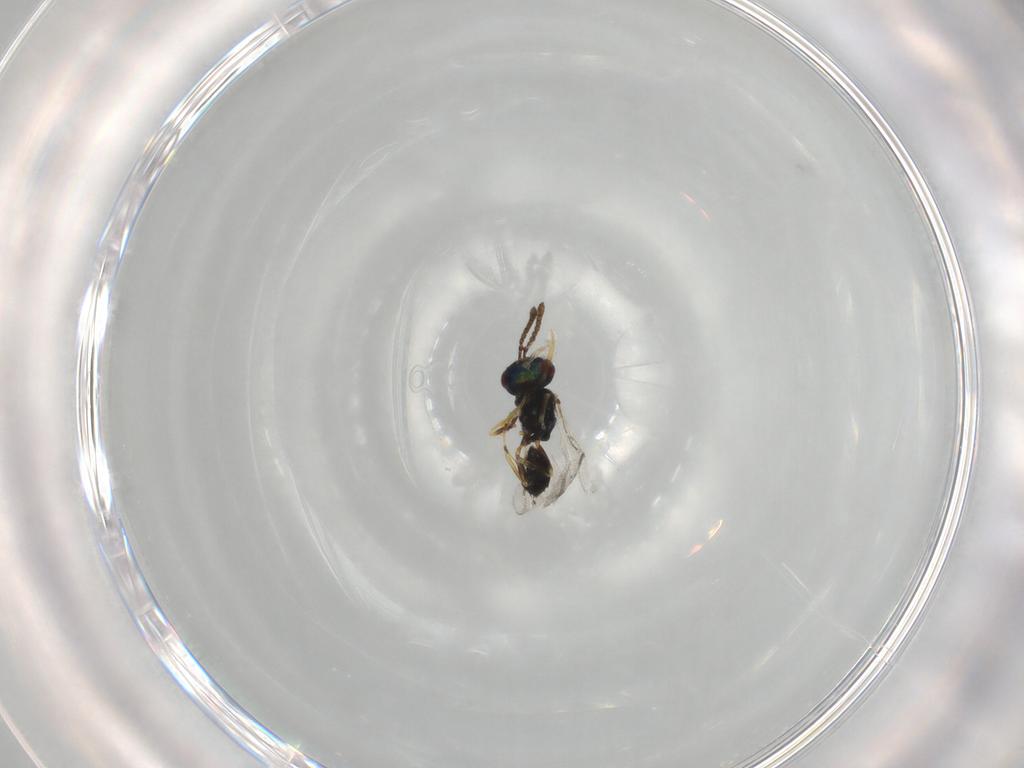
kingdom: Animalia
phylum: Arthropoda
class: Insecta
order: Hymenoptera
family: Pteromalidae
